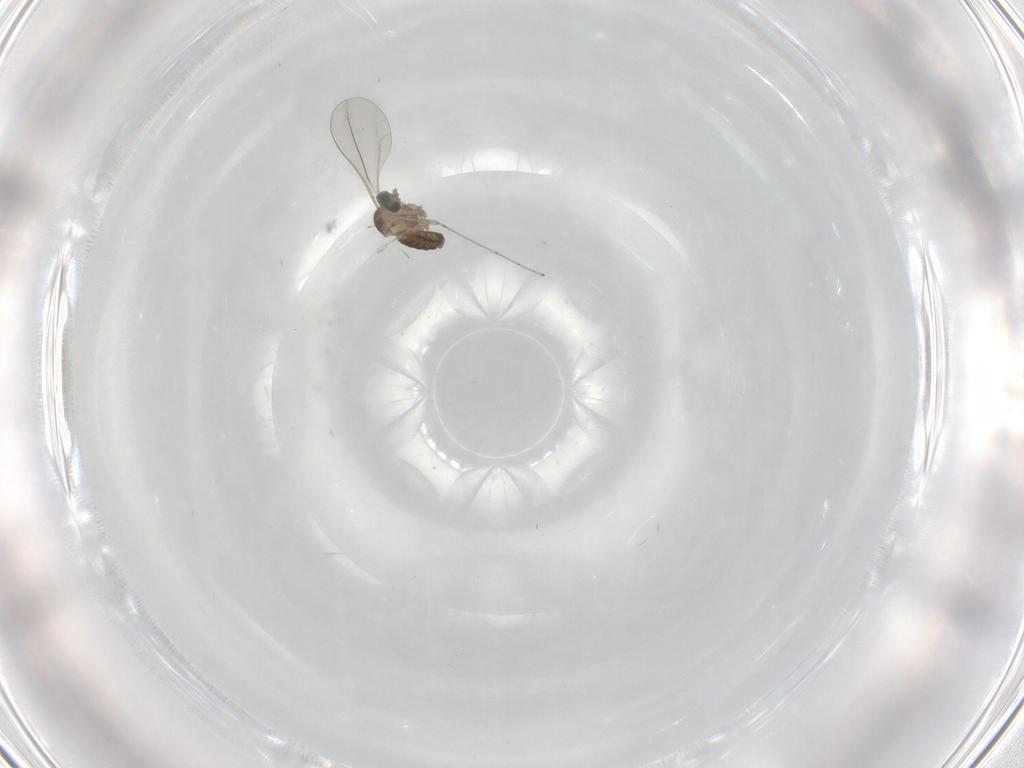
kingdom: Animalia
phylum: Arthropoda
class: Insecta
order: Diptera
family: Cecidomyiidae
